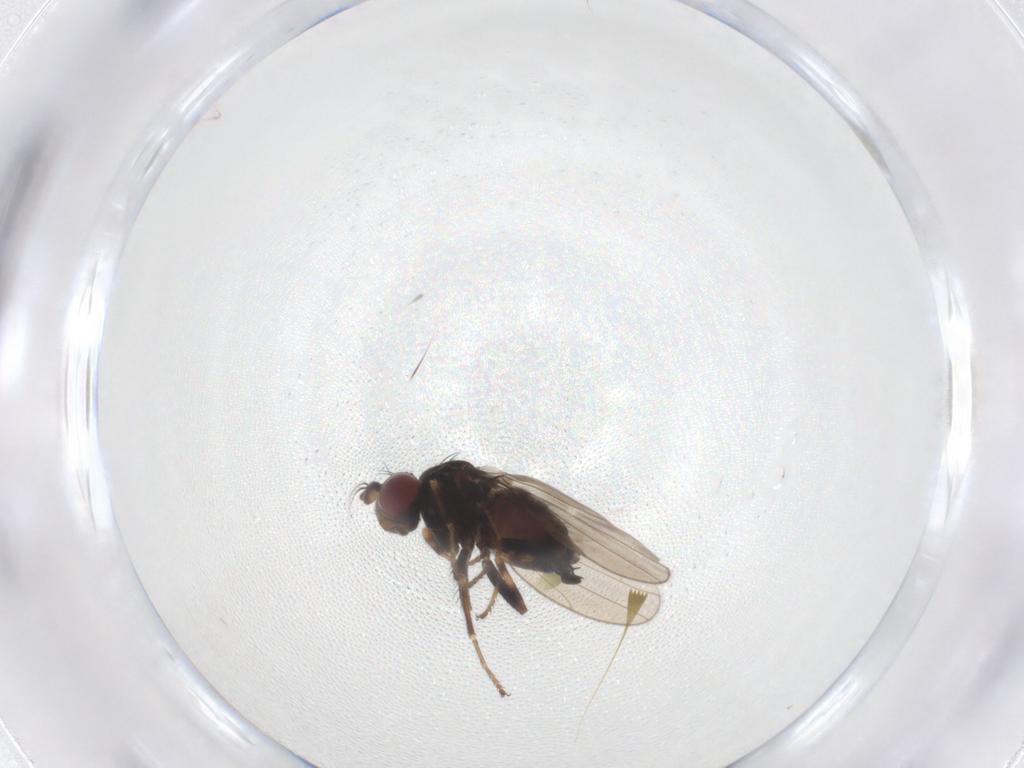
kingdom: Animalia
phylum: Arthropoda
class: Insecta
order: Diptera
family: Ephydridae
